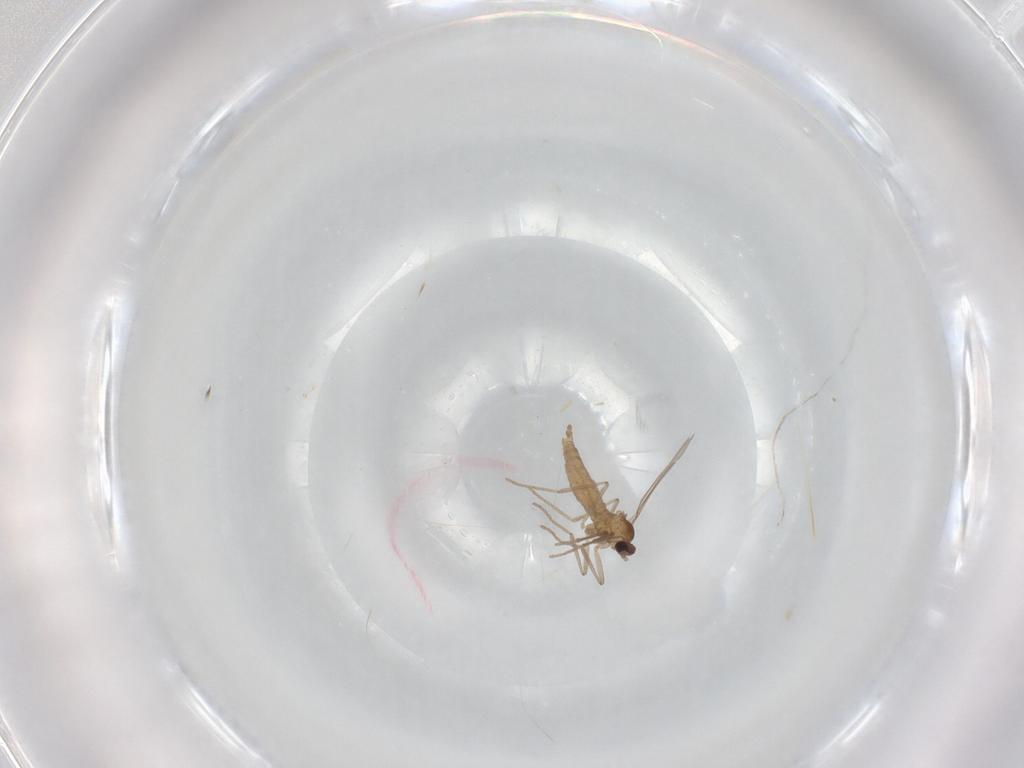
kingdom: Animalia
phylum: Arthropoda
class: Insecta
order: Diptera
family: Cecidomyiidae
